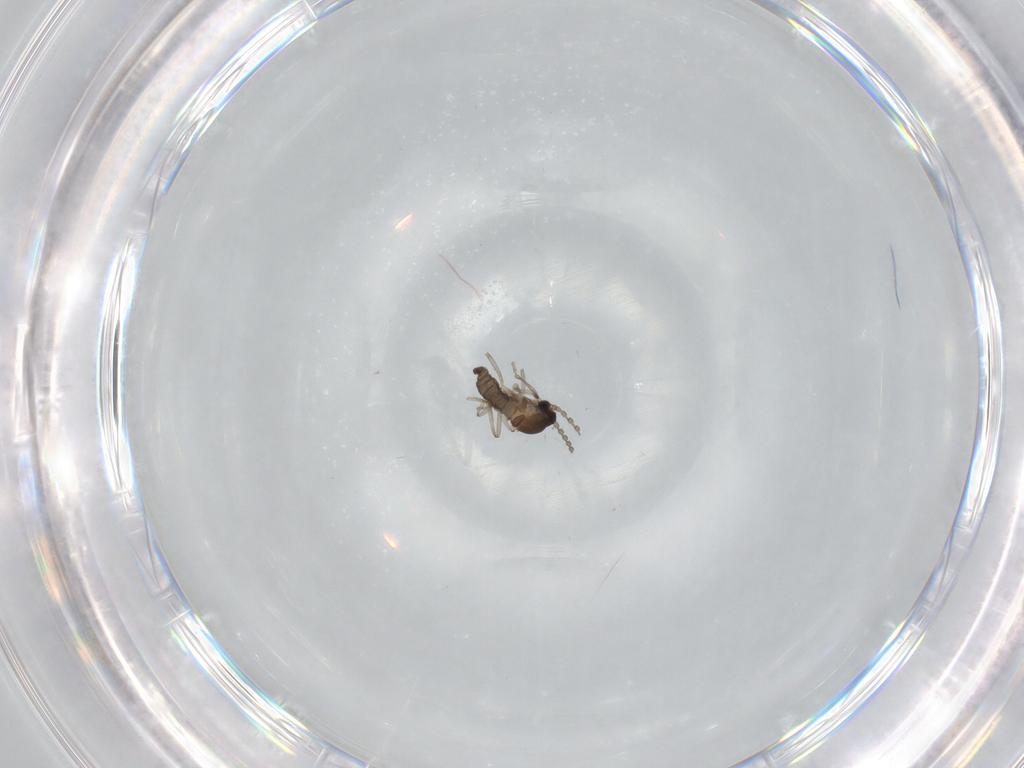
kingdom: Animalia
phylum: Arthropoda
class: Insecta
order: Diptera
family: Cecidomyiidae
